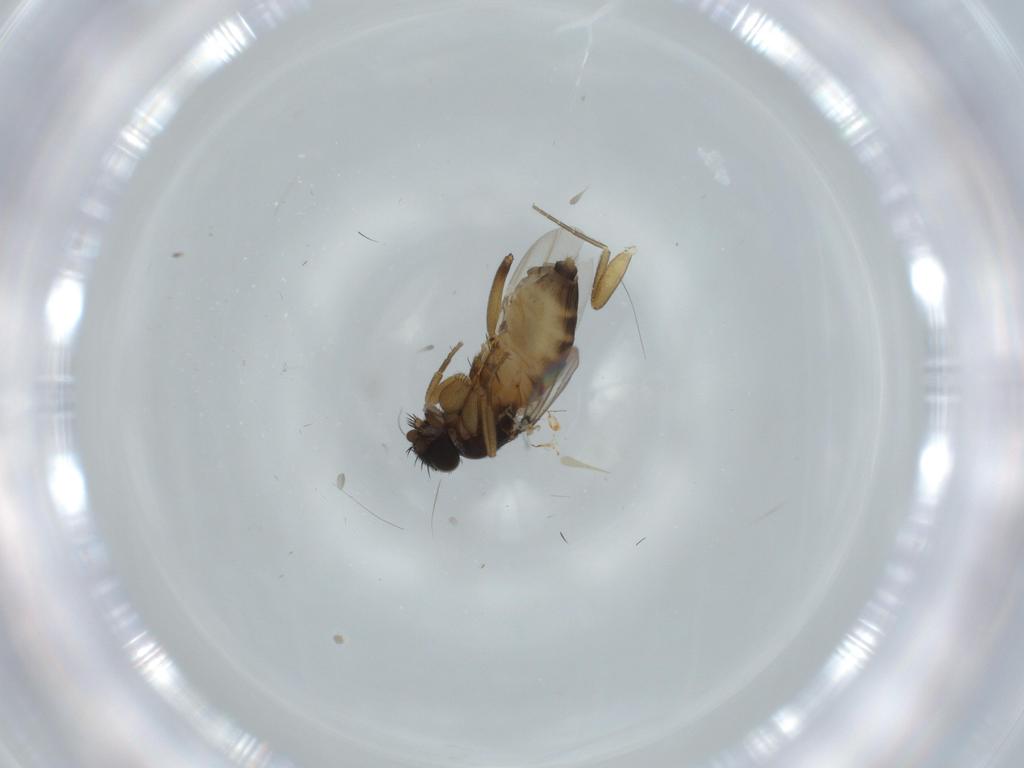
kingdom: Animalia
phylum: Arthropoda
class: Insecta
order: Diptera
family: Phoridae
